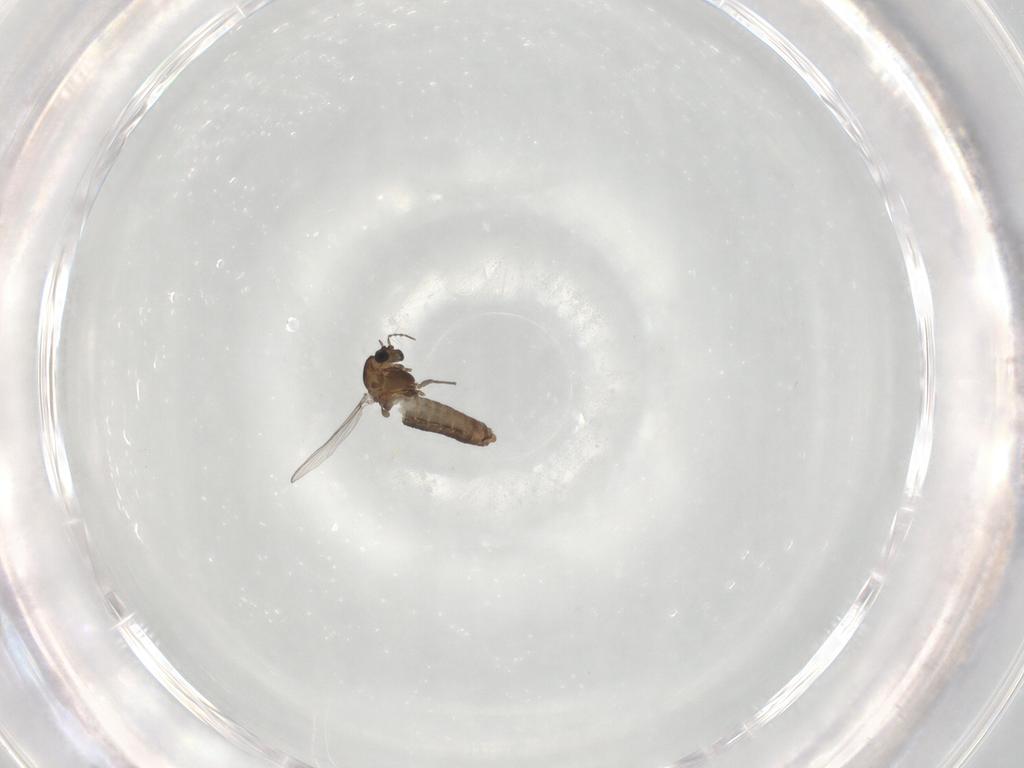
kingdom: Animalia
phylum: Arthropoda
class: Insecta
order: Diptera
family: Chironomidae
